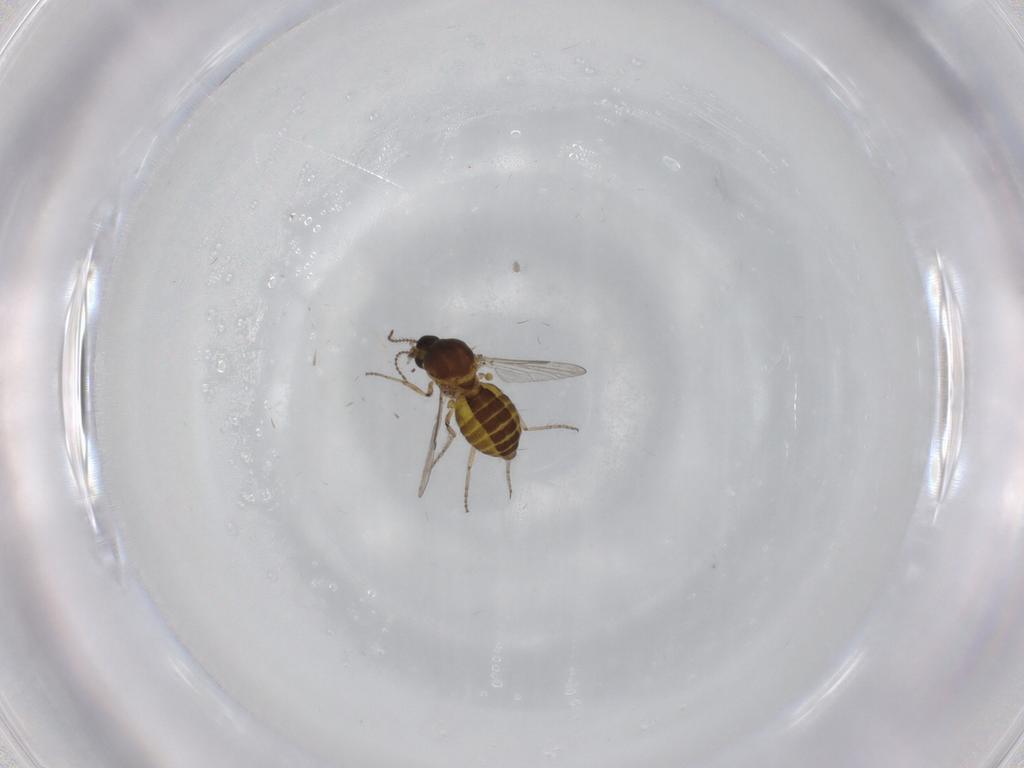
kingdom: Animalia
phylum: Arthropoda
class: Insecta
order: Diptera
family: Ceratopogonidae
